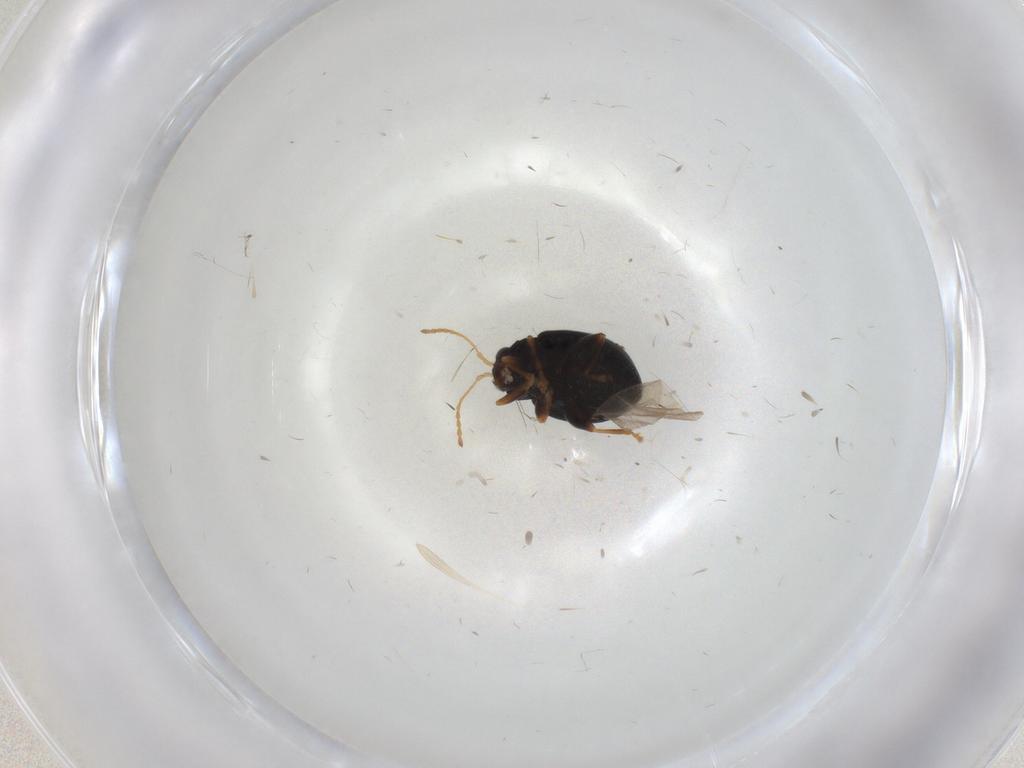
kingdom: Animalia
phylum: Arthropoda
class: Insecta
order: Coleoptera
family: Chrysomelidae
